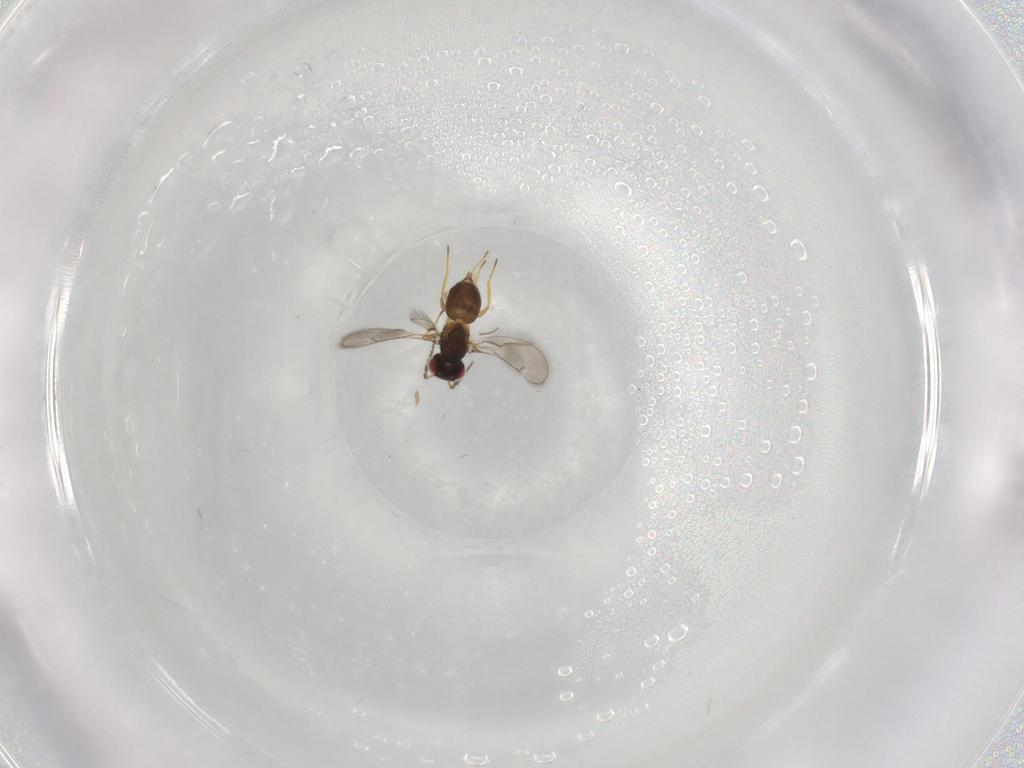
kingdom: Animalia
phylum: Arthropoda
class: Insecta
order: Hymenoptera
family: Eulophidae
